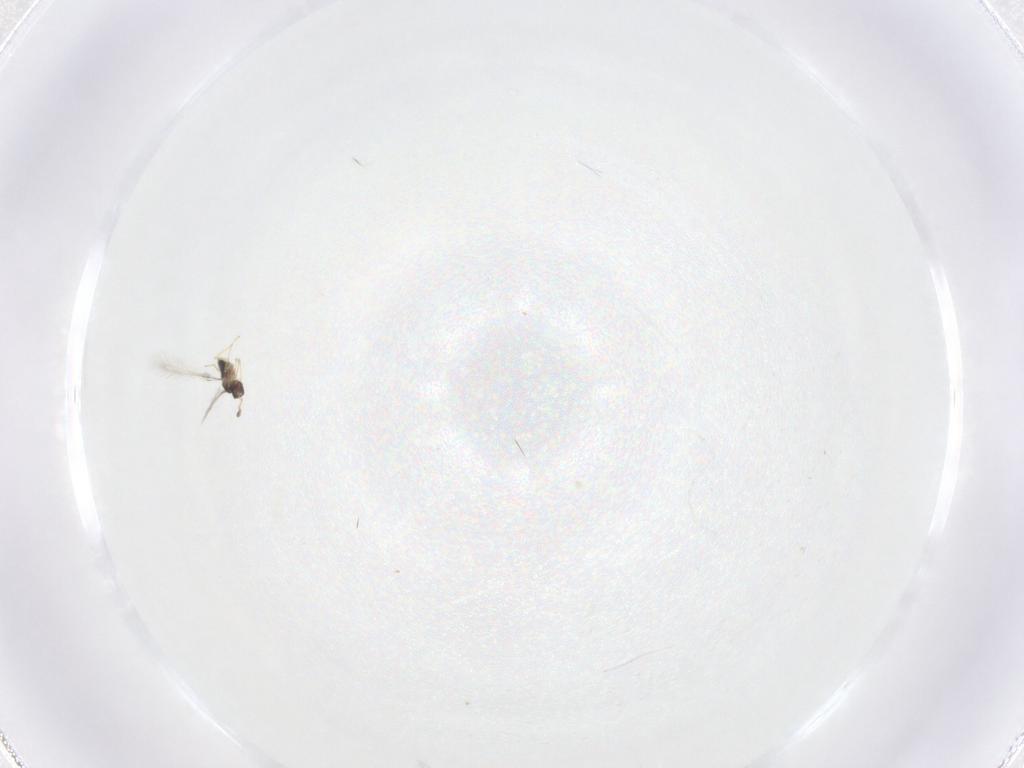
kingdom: Animalia
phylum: Arthropoda
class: Insecta
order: Hymenoptera
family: Mymaridae
